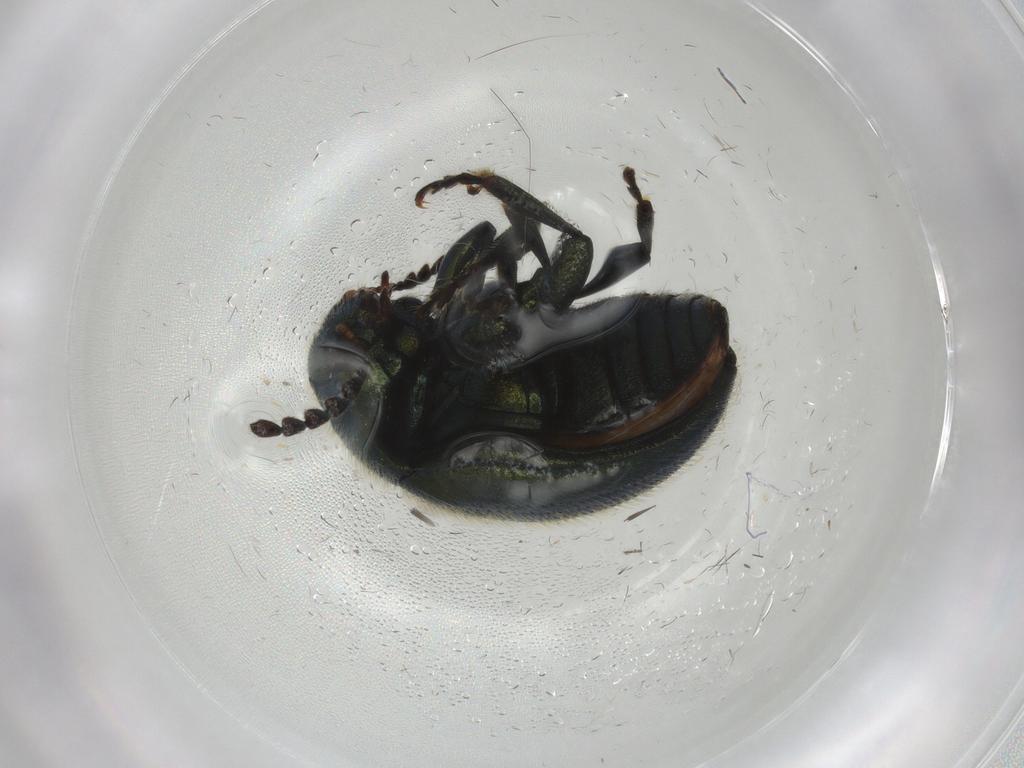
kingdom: Animalia
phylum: Arthropoda
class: Insecta
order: Coleoptera
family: Chrysomelidae
